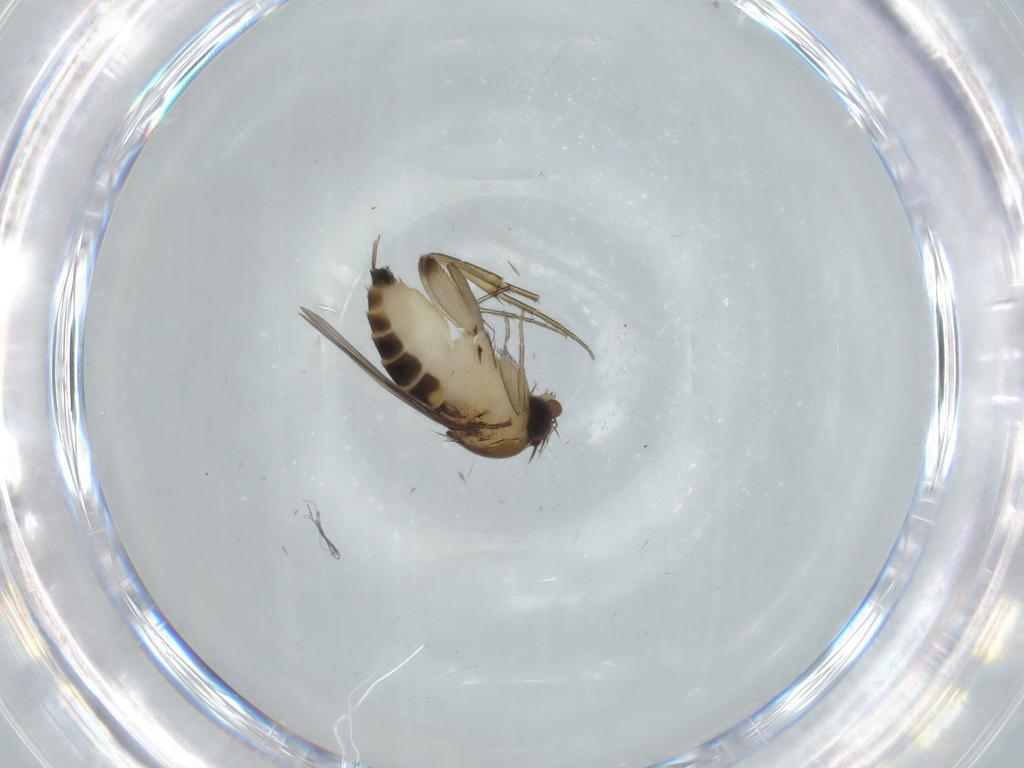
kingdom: Animalia
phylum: Arthropoda
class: Insecta
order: Diptera
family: Phoridae
